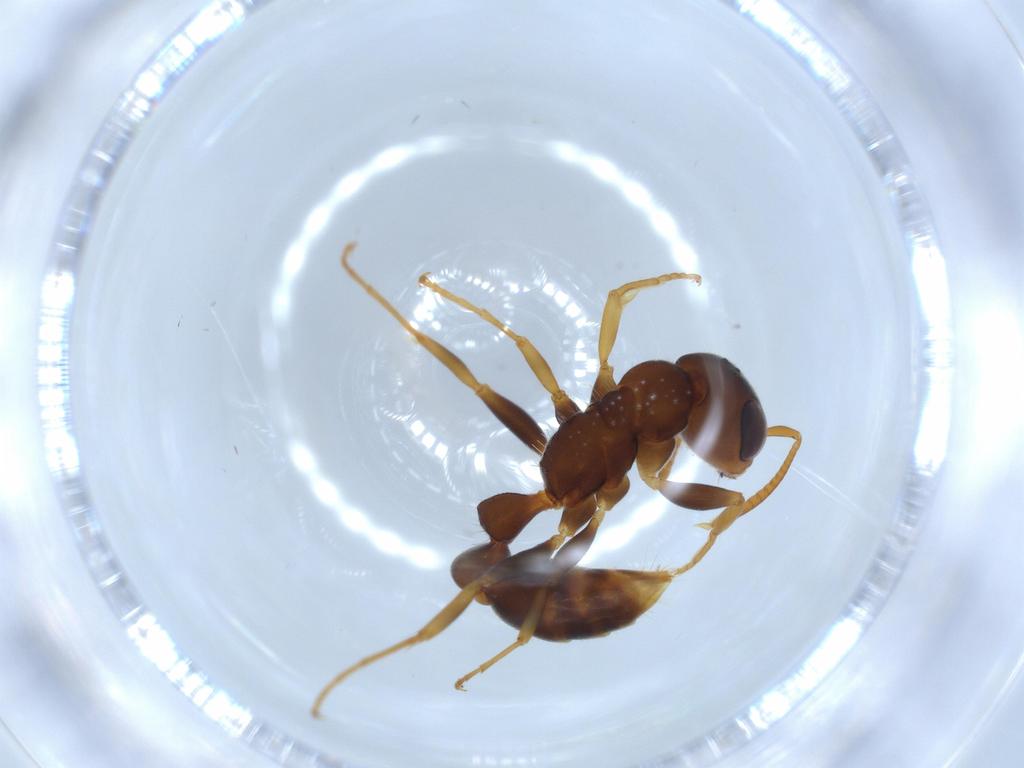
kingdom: Animalia
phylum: Arthropoda
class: Insecta
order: Hymenoptera
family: Formicidae
